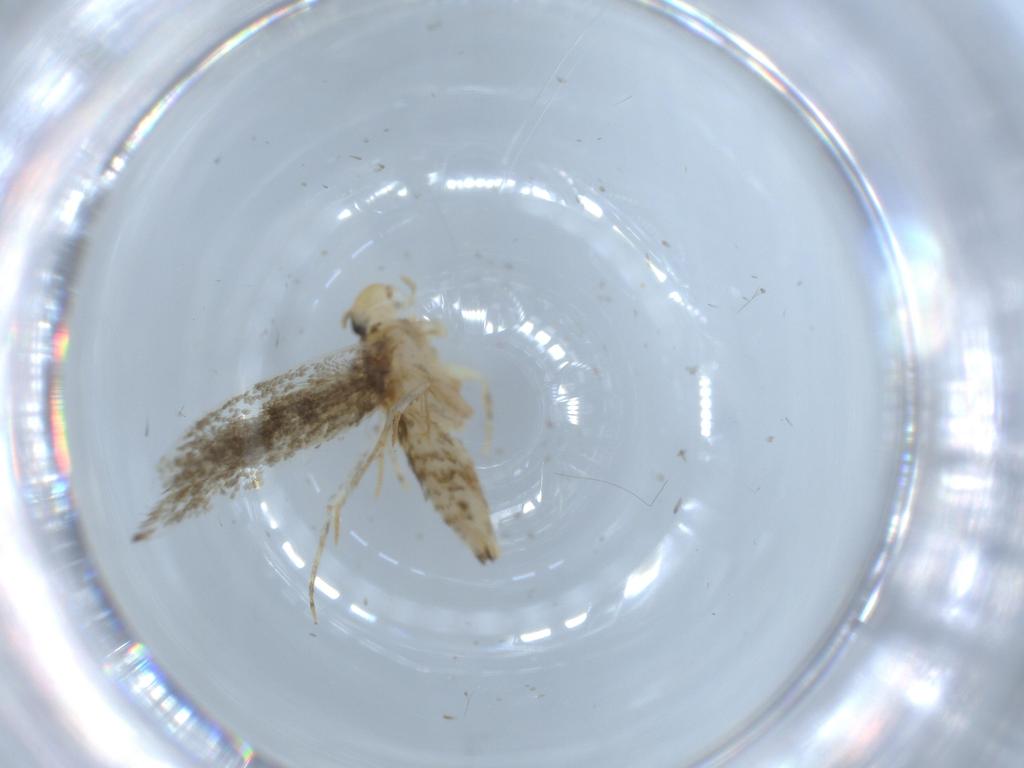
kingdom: Animalia
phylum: Arthropoda
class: Insecta
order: Lepidoptera
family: Tineidae
